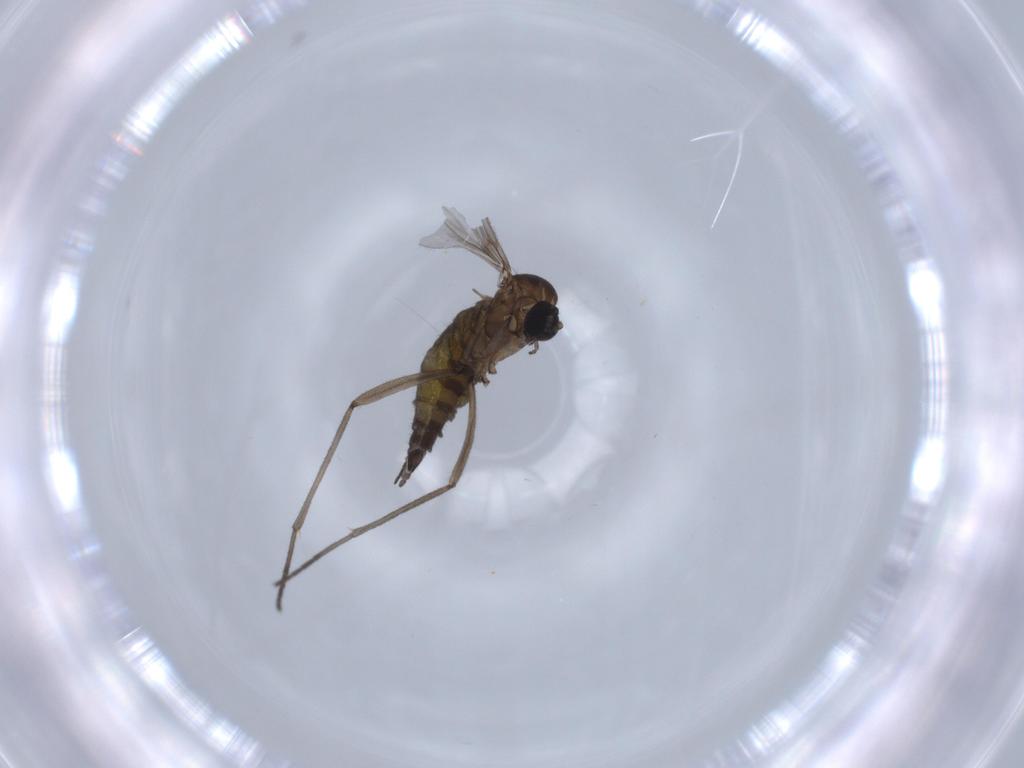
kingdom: Animalia
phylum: Arthropoda
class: Insecta
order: Diptera
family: Sciaridae
